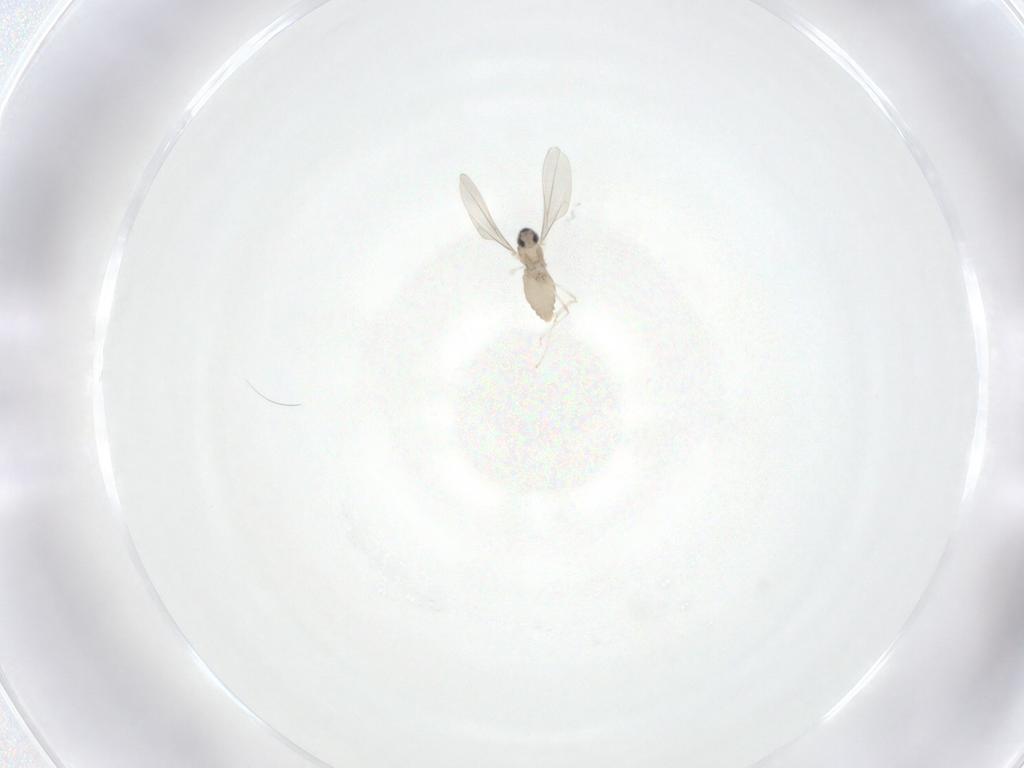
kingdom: Animalia
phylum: Arthropoda
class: Insecta
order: Diptera
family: Cecidomyiidae
